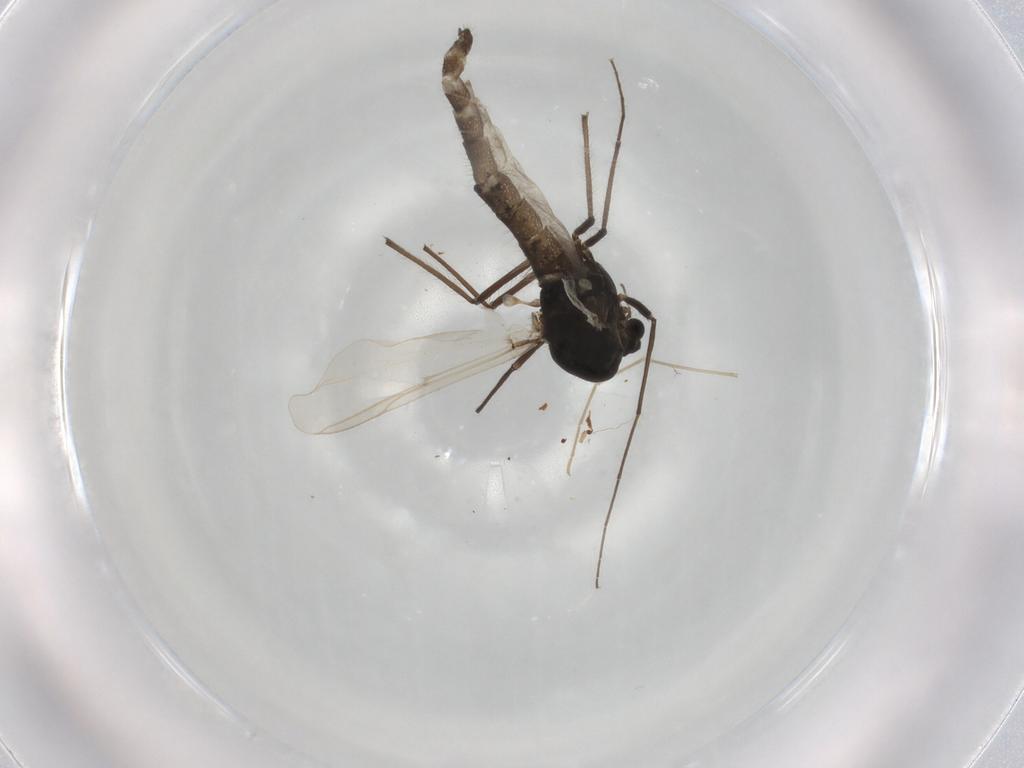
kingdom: Animalia
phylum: Arthropoda
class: Insecta
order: Diptera
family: Chironomidae
